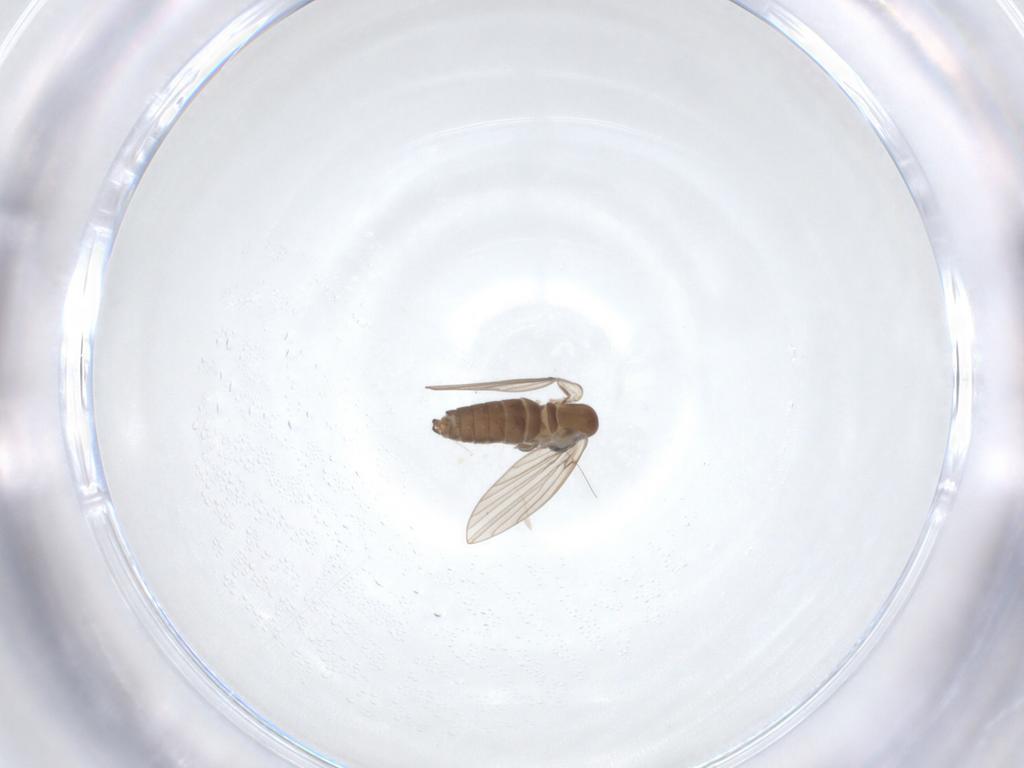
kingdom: Animalia
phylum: Arthropoda
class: Insecta
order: Diptera
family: Keroplatidae
